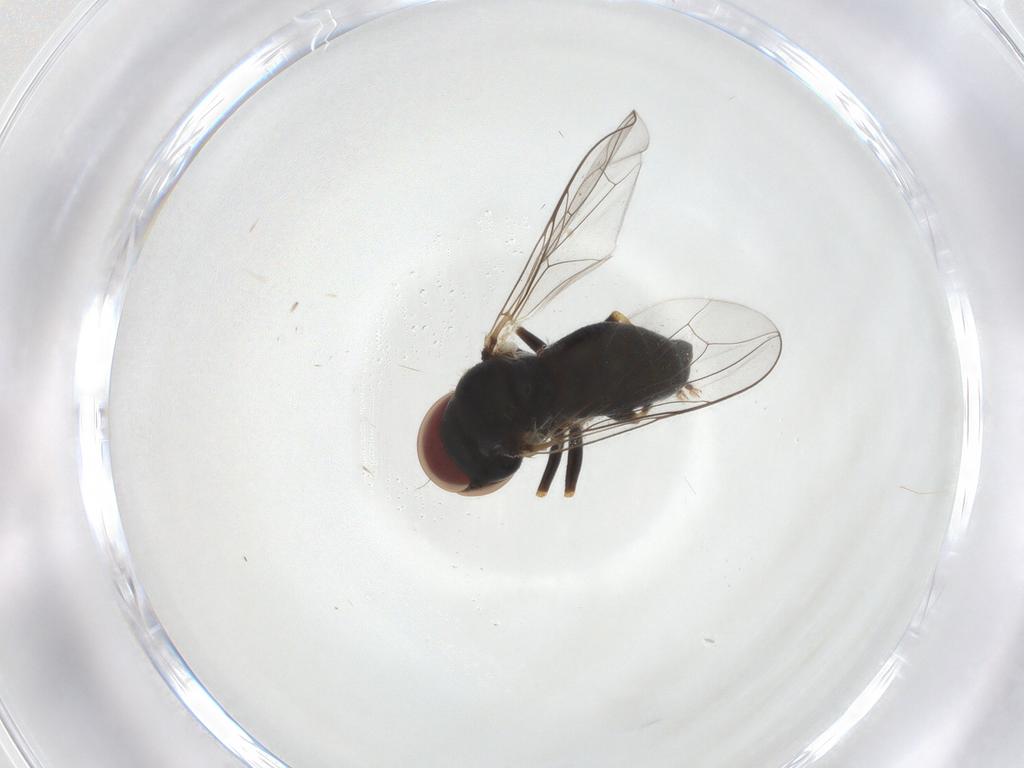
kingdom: Animalia
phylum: Arthropoda
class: Insecta
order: Diptera
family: Pipunculidae
